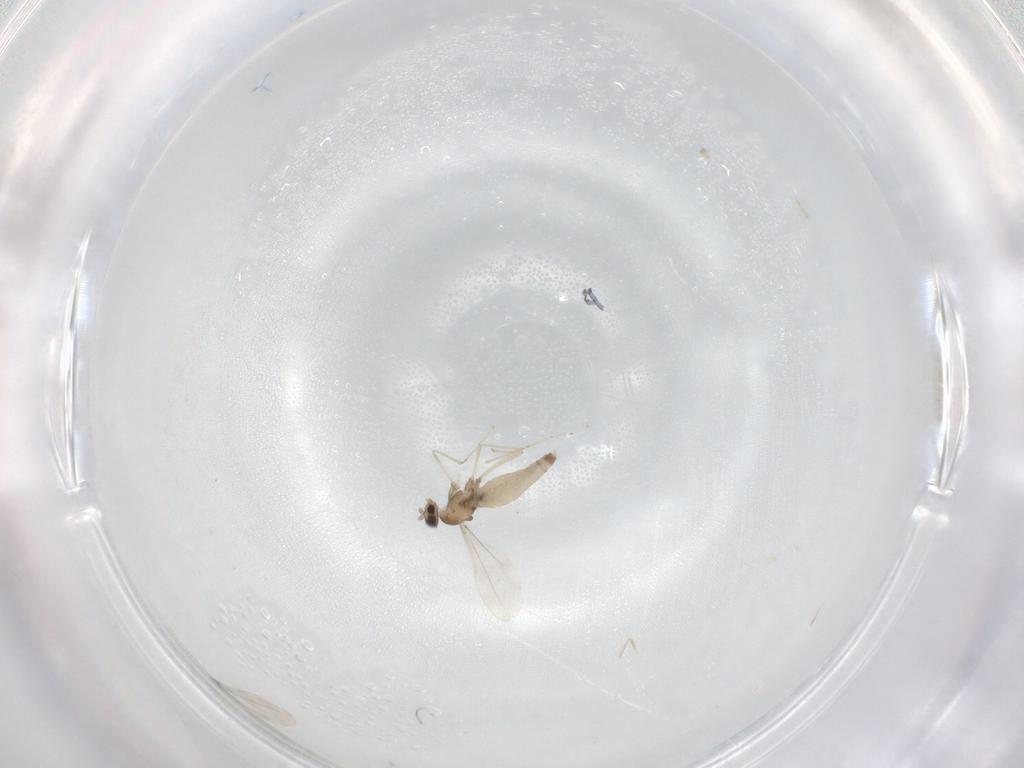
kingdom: Animalia
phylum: Arthropoda
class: Insecta
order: Diptera
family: Cecidomyiidae
